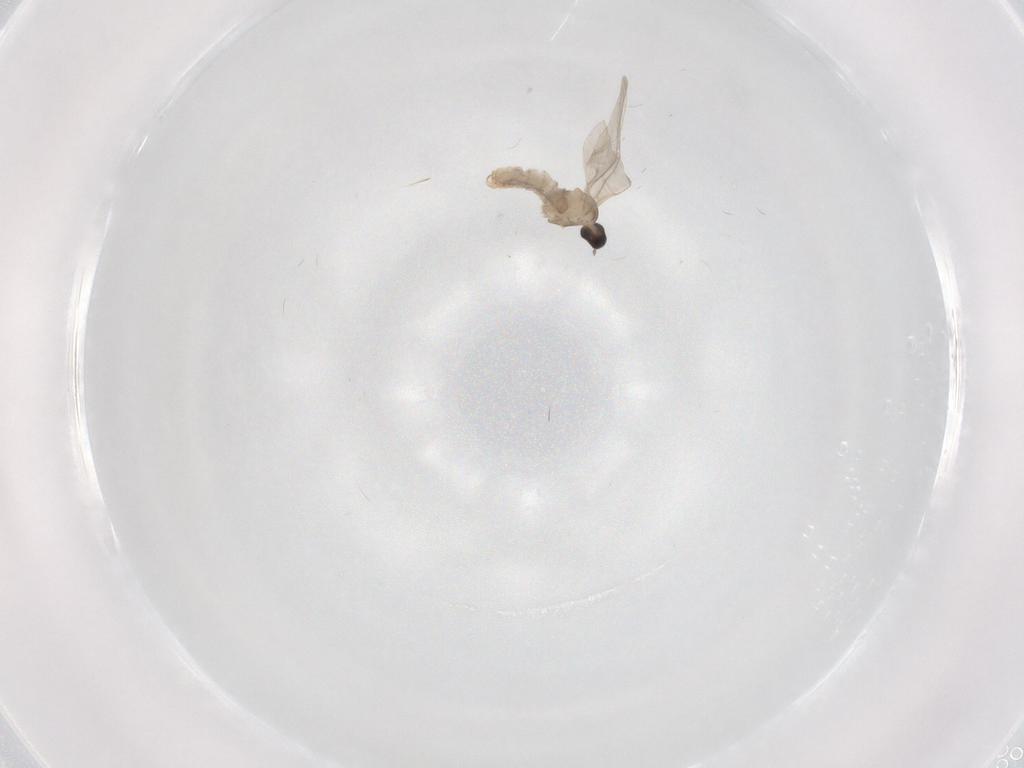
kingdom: Animalia
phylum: Arthropoda
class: Insecta
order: Diptera
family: Cecidomyiidae
